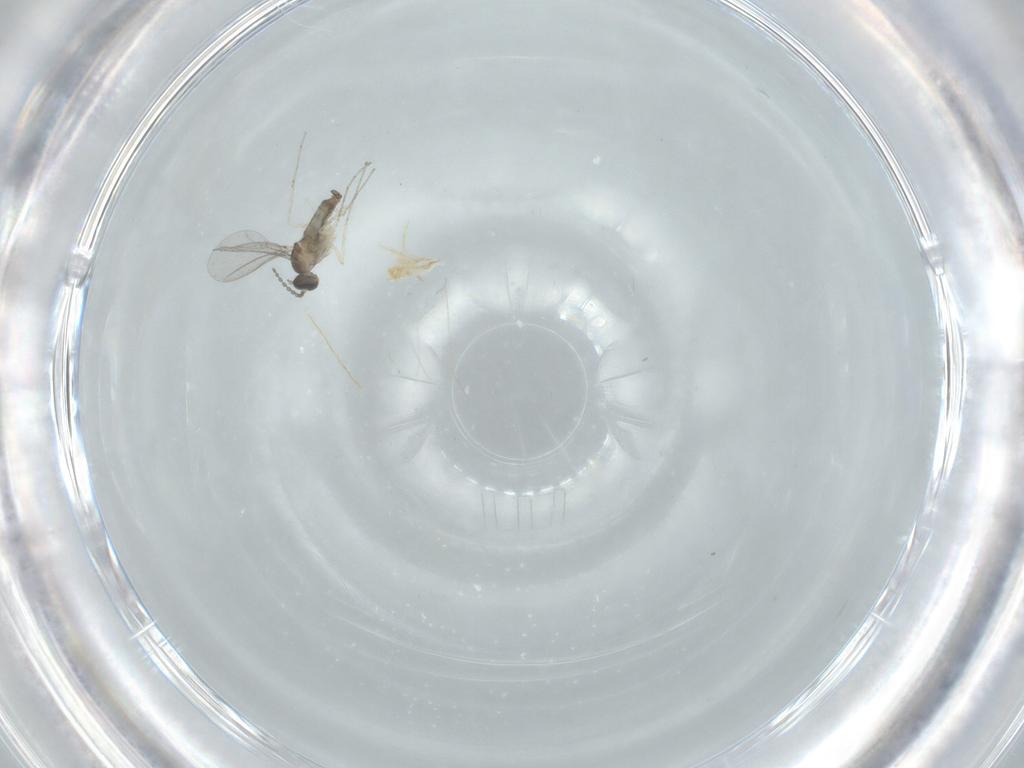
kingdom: Animalia
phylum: Arthropoda
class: Insecta
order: Diptera
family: Cecidomyiidae
